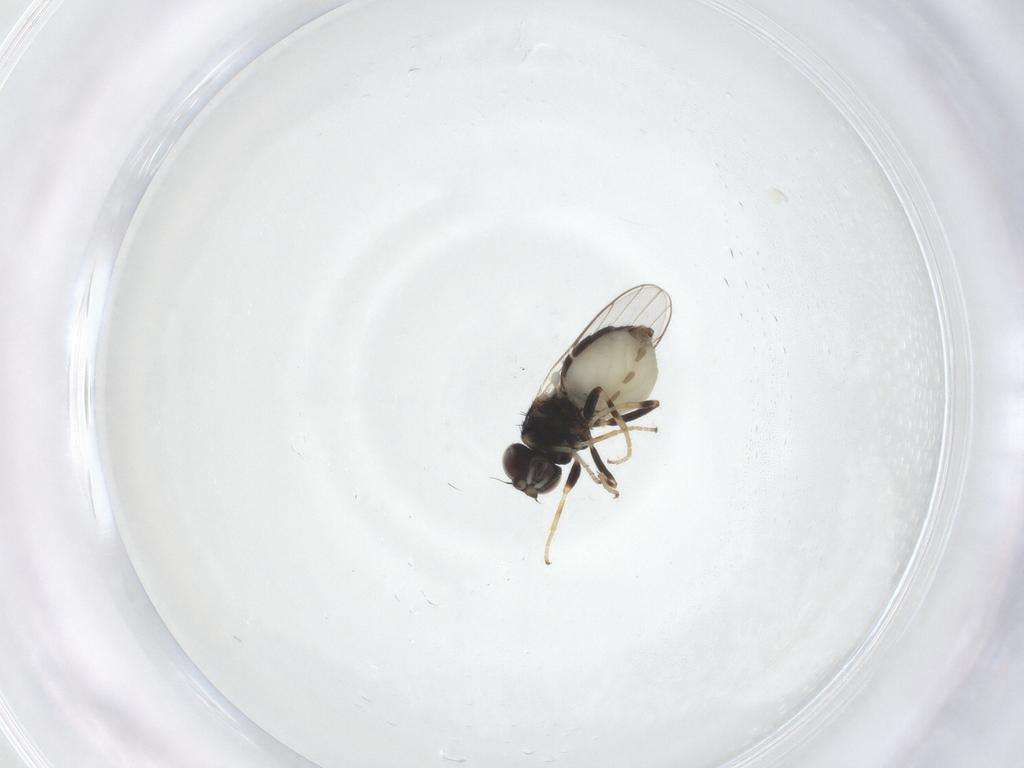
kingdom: Animalia
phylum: Arthropoda
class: Insecta
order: Diptera
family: Chloropidae
